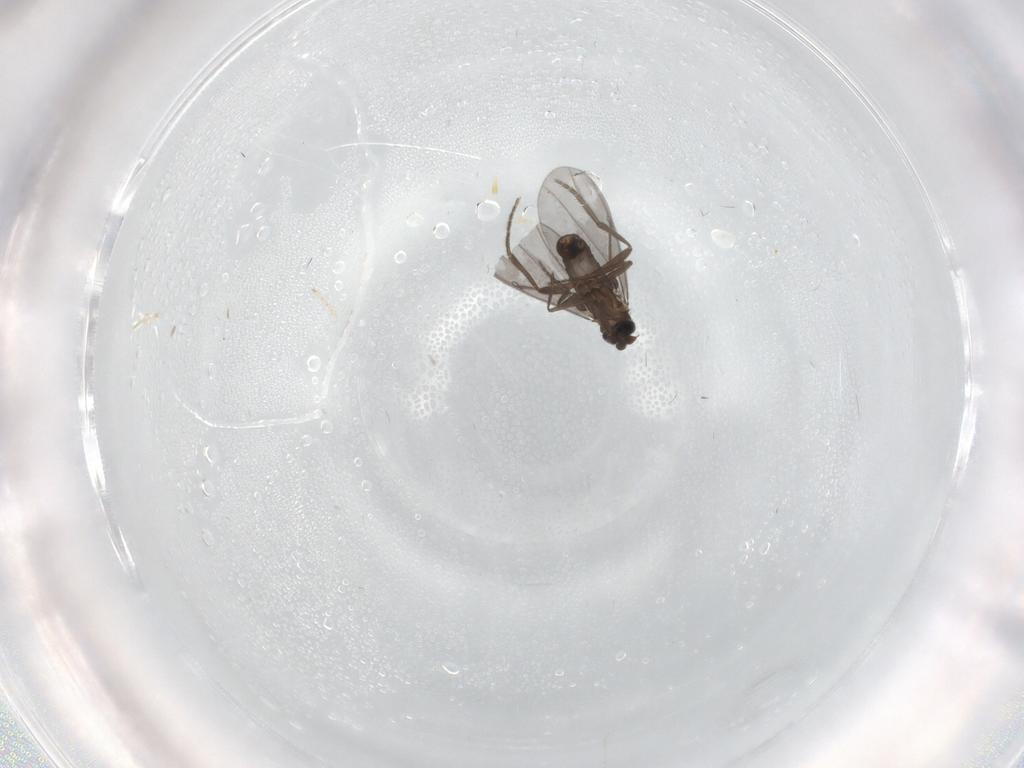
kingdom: Animalia
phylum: Arthropoda
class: Insecta
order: Diptera
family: Phoridae
